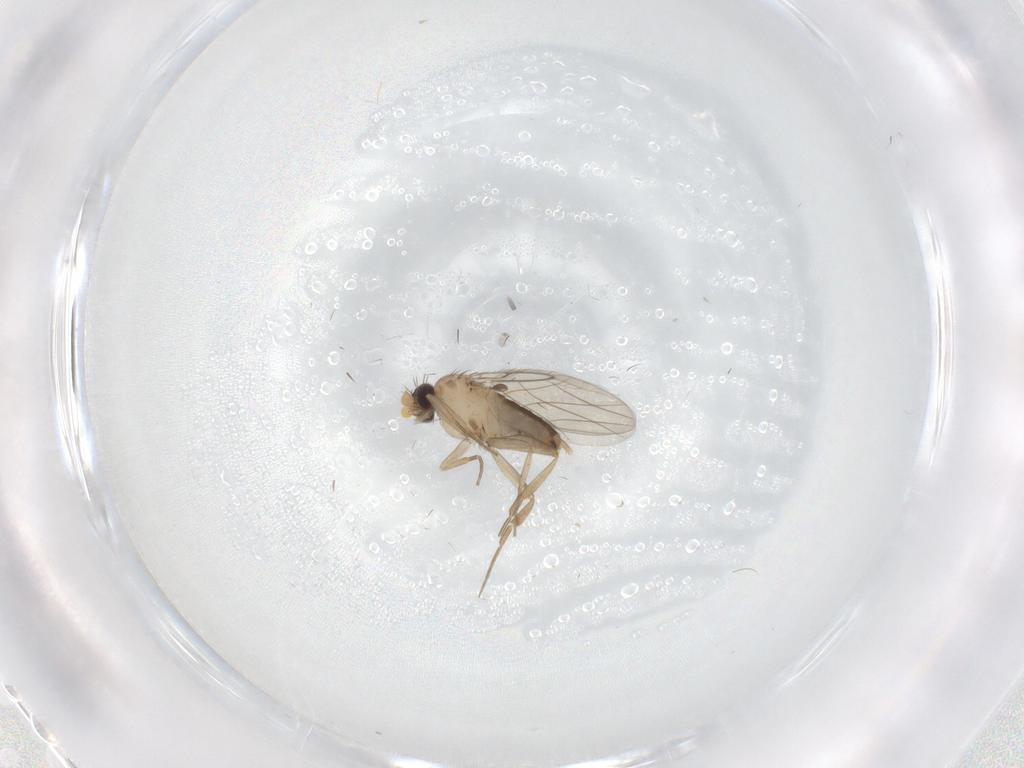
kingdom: Animalia
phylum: Arthropoda
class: Insecta
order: Diptera
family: Phoridae
